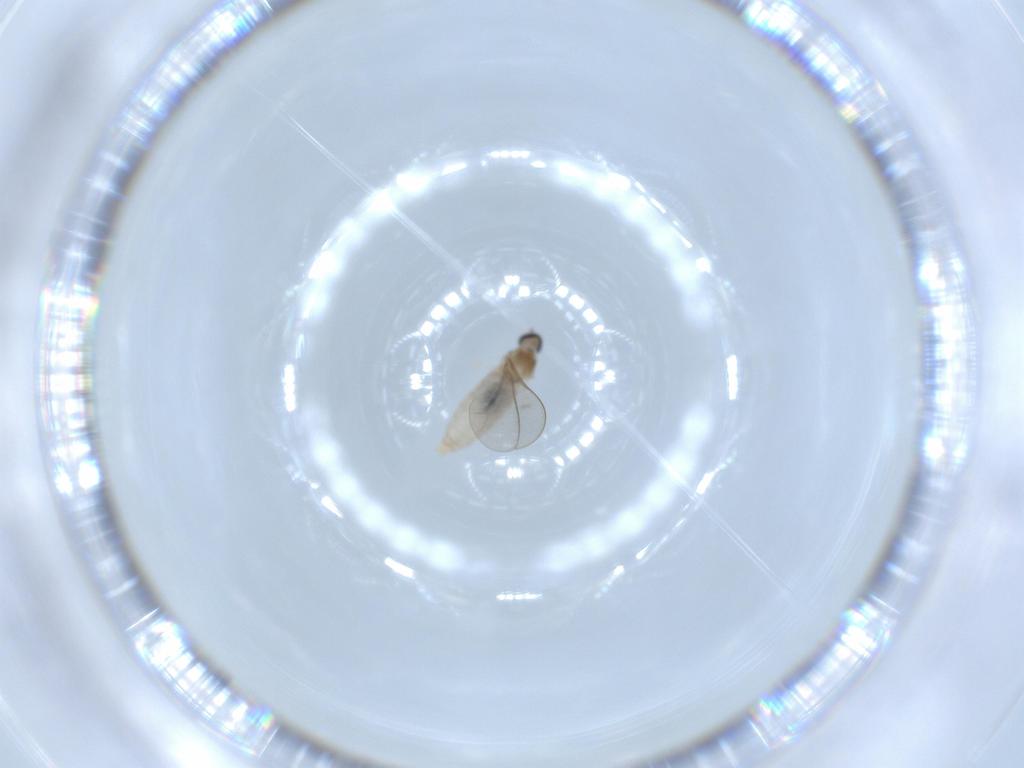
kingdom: Animalia
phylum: Arthropoda
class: Insecta
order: Diptera
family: Cecidomyiidae
